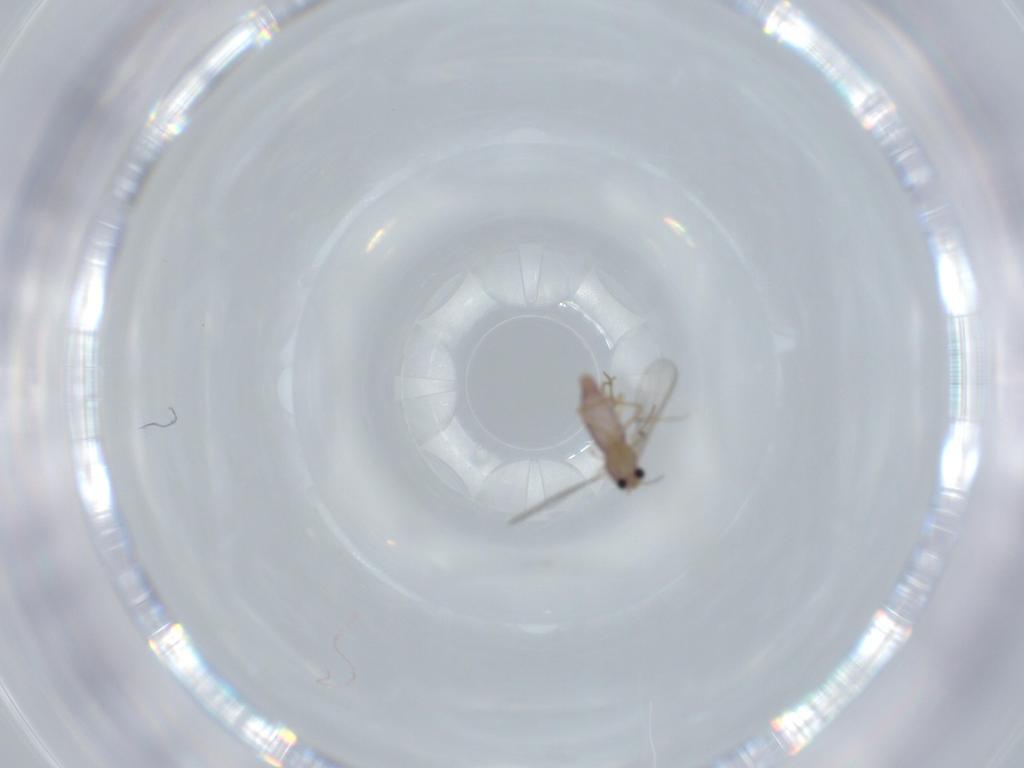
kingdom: Animalia
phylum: Arthropoda
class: Insecta
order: Diptera
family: Chironomidae
